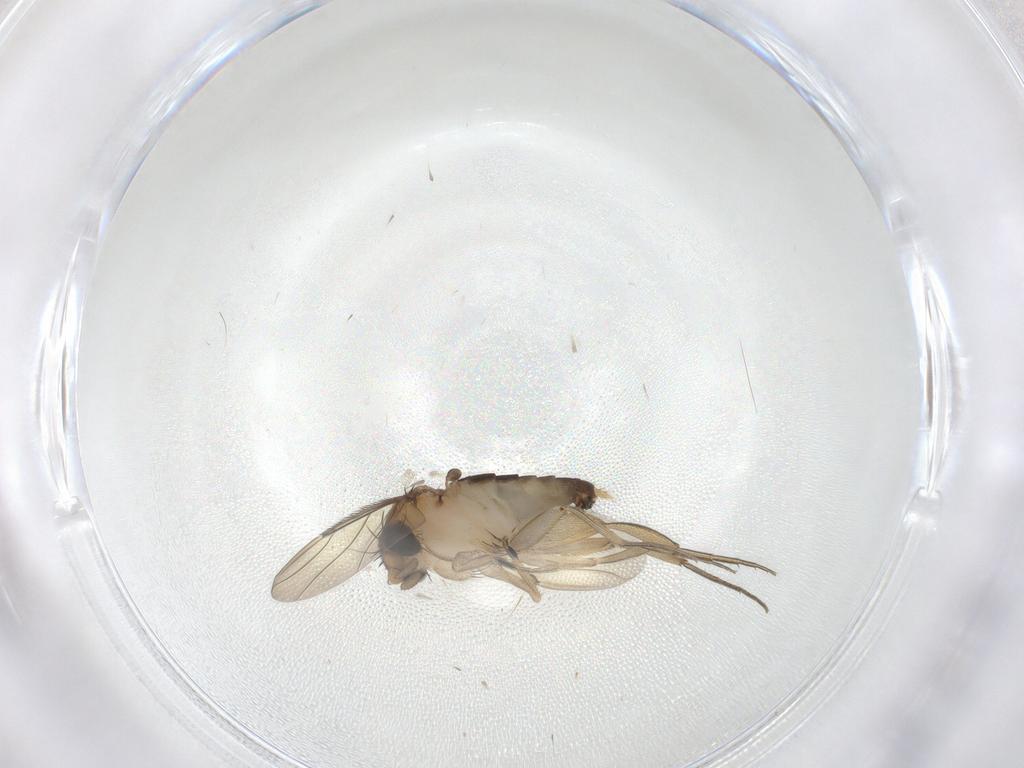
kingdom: Animalia
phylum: Arthropoda
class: Insecta
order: Diptera
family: Phoridae
